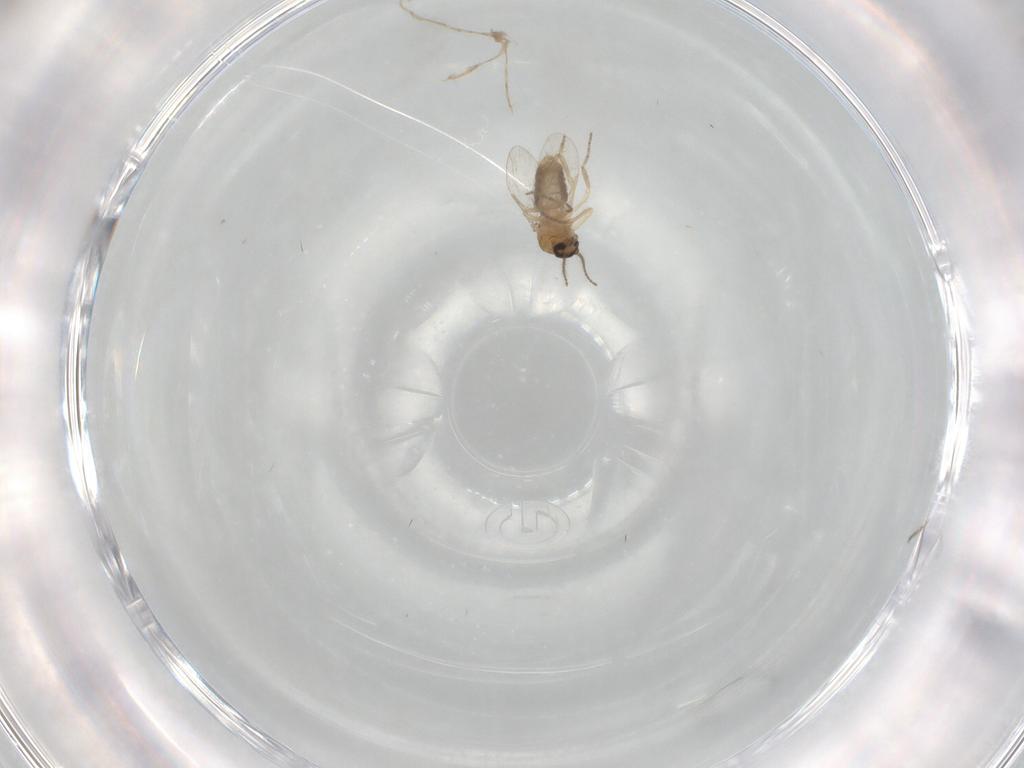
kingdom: Animalia
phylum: Arthropoda
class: Insecta
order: Diptera
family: Ceratopogonidae
